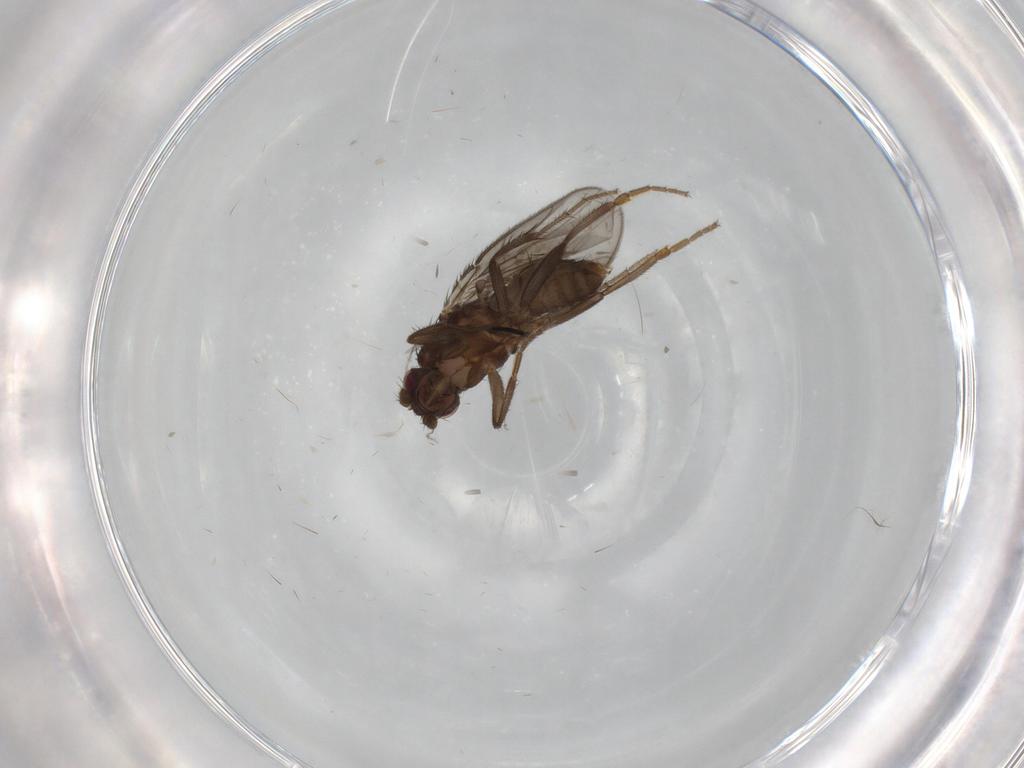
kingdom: Animalia
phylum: Arthropoda
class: Insecta
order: Diptera
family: Sphaeroceridae
